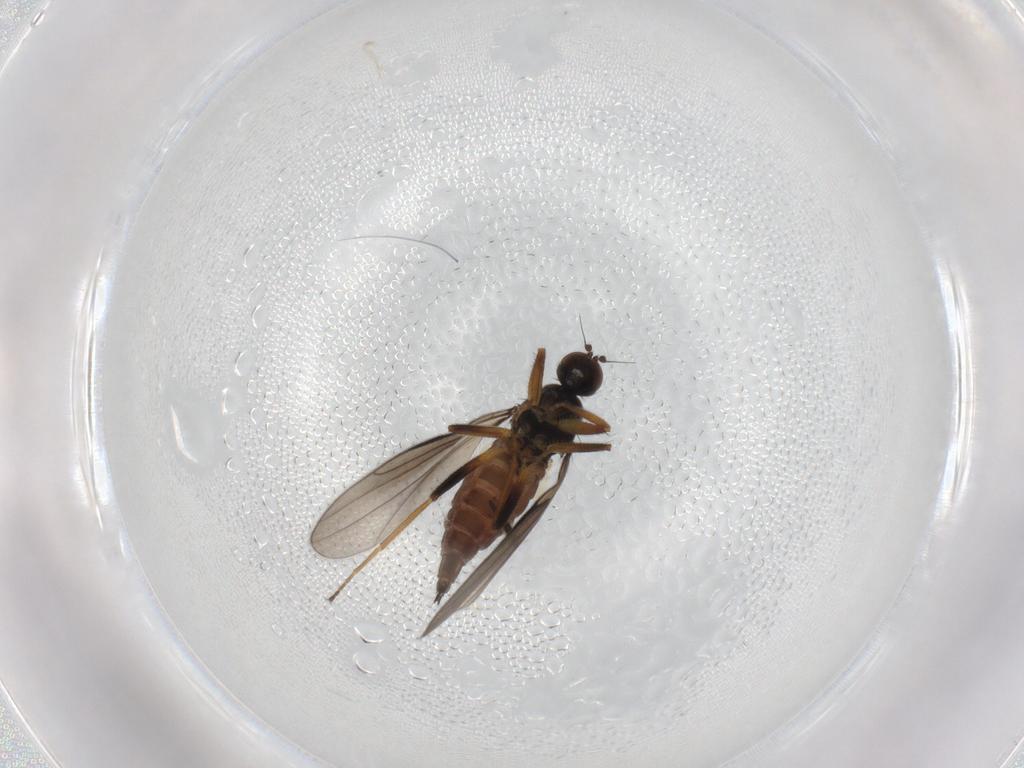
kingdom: Animalia
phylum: Arthropoda
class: Insecta
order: Diptera
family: Hybotidae
